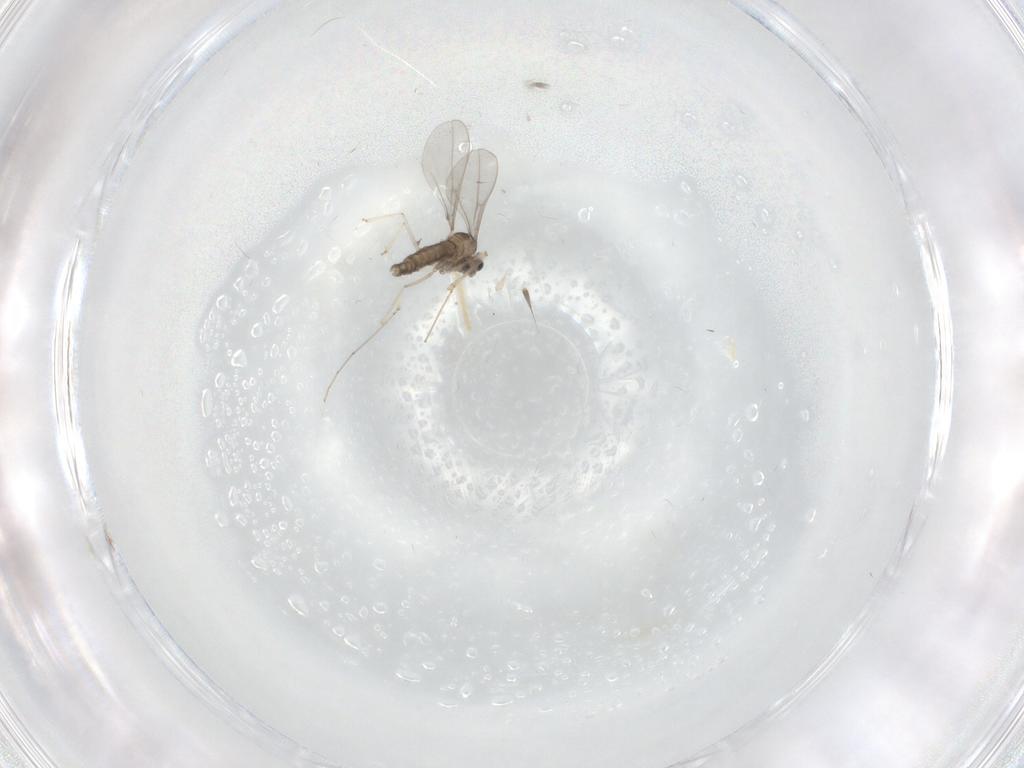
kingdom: Animalia
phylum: Arthropoda
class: Insecta
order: Diptera
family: Cecidomyiidae
